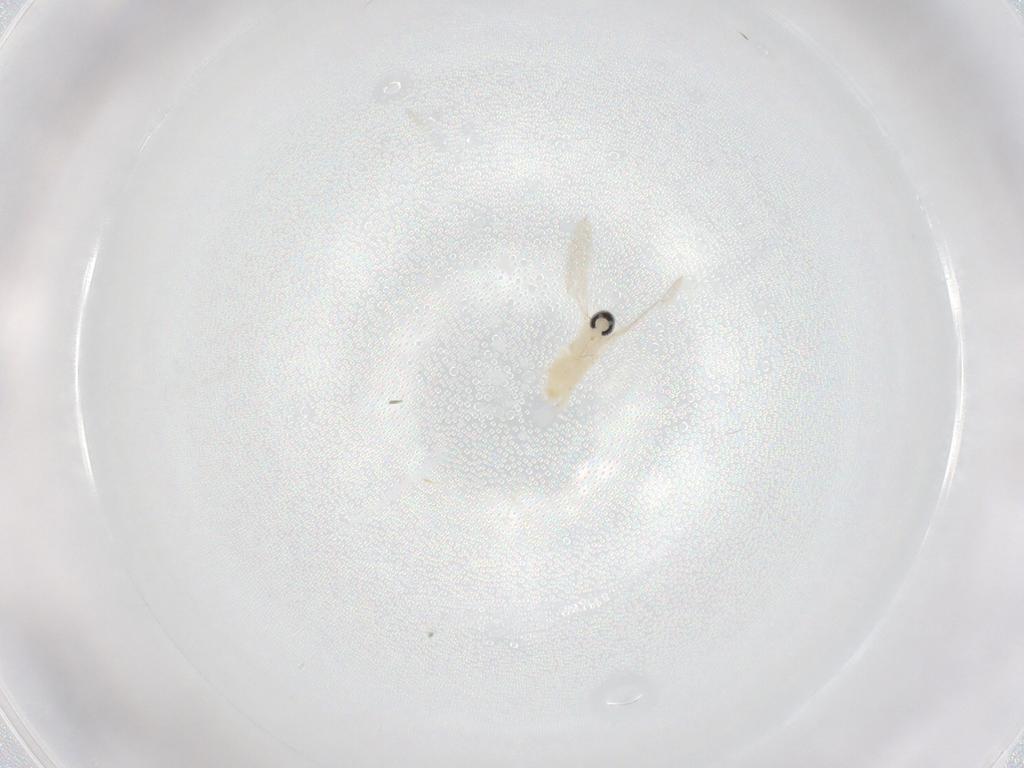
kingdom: Animalia
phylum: Arthropoda
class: Insecta
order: Diptera
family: Cecidomyiidae
